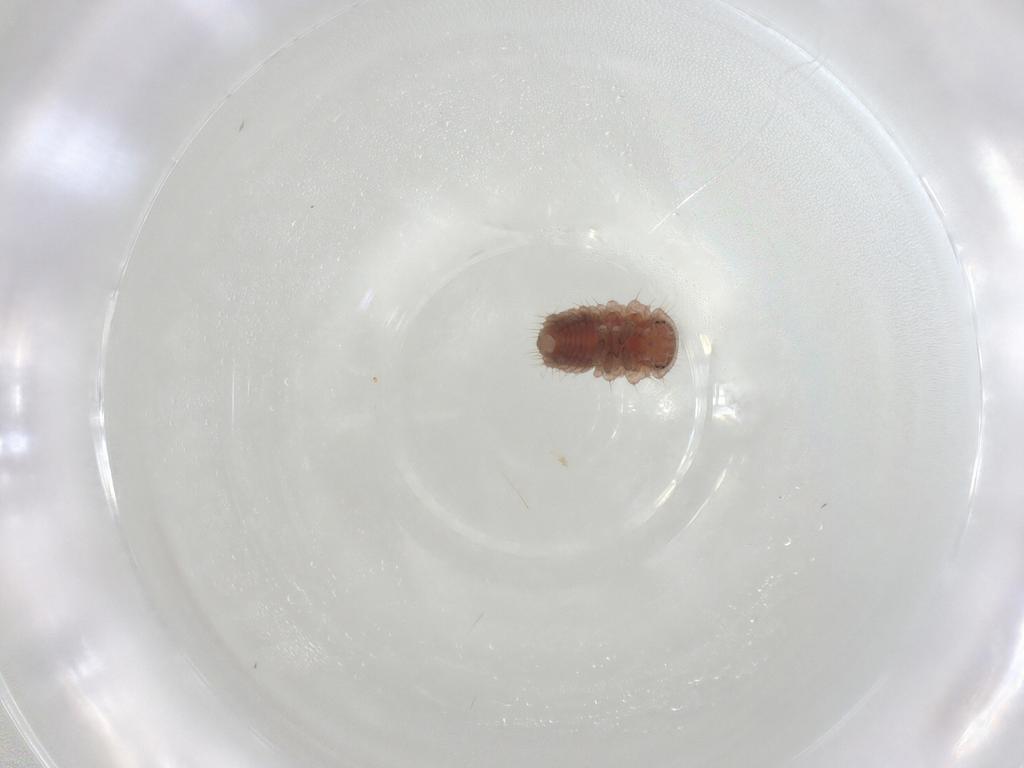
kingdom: Animalia
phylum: Arthropoda
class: Insecta
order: Coleoptera
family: Coccinellidae
